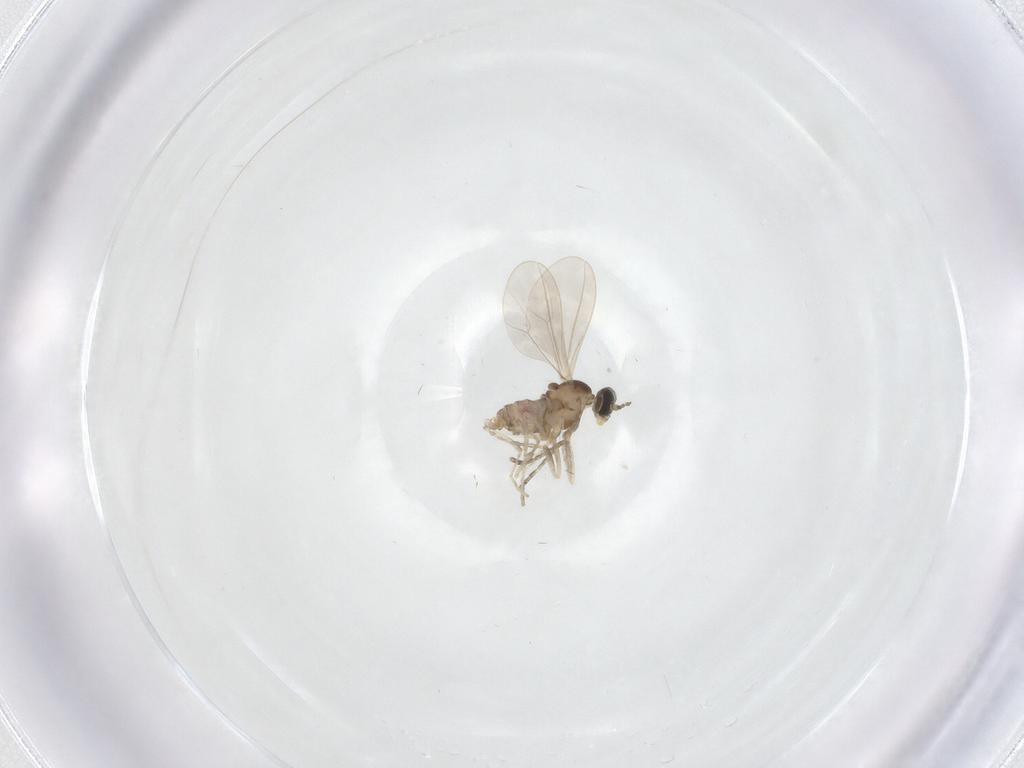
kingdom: Animalia
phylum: Arthropoda
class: Insecta
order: Diptera
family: Cecidomyiidae
